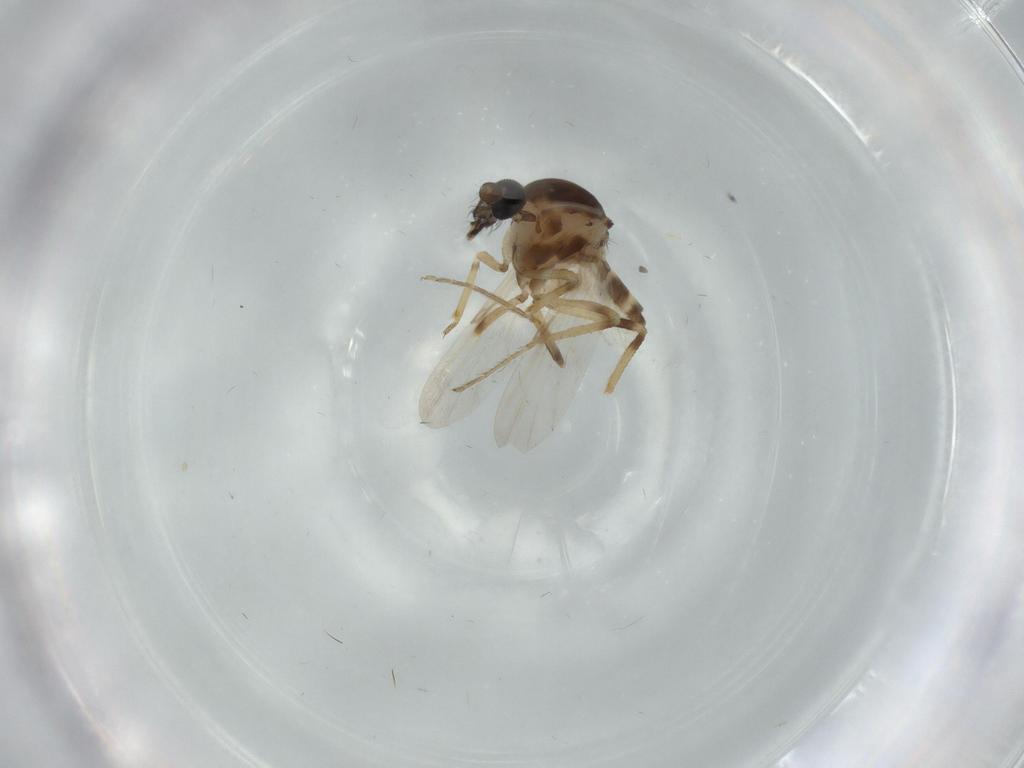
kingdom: Animalia
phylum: Arthropoda
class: Insecta
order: Diptera
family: Ceratopogonidae
